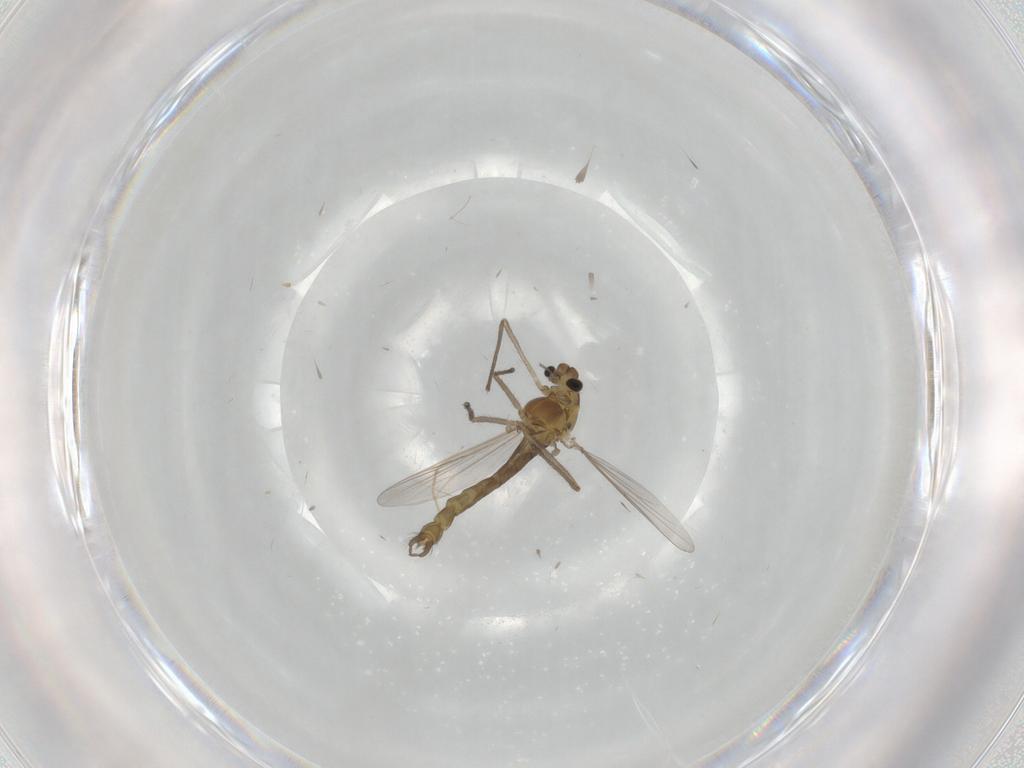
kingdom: Animalia
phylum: Arthropoda
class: Insecta
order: Diptera
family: Chironomidae
